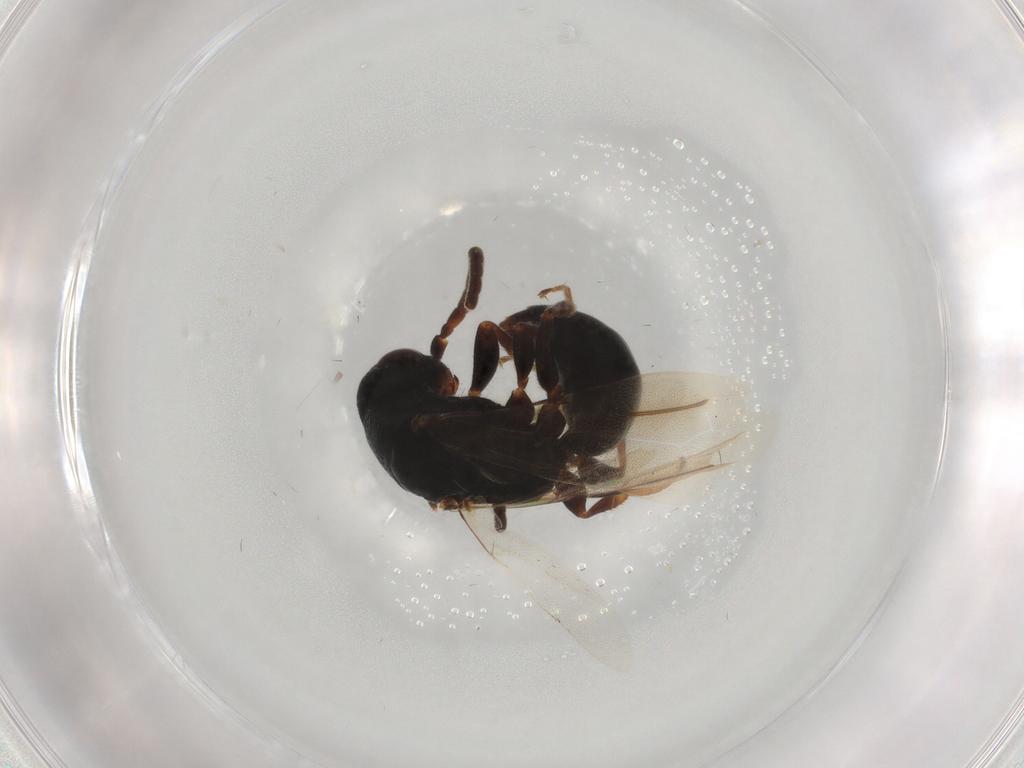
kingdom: Animalia
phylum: Arthropoda
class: Insecta
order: Hymenoptera
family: Bethylidae
